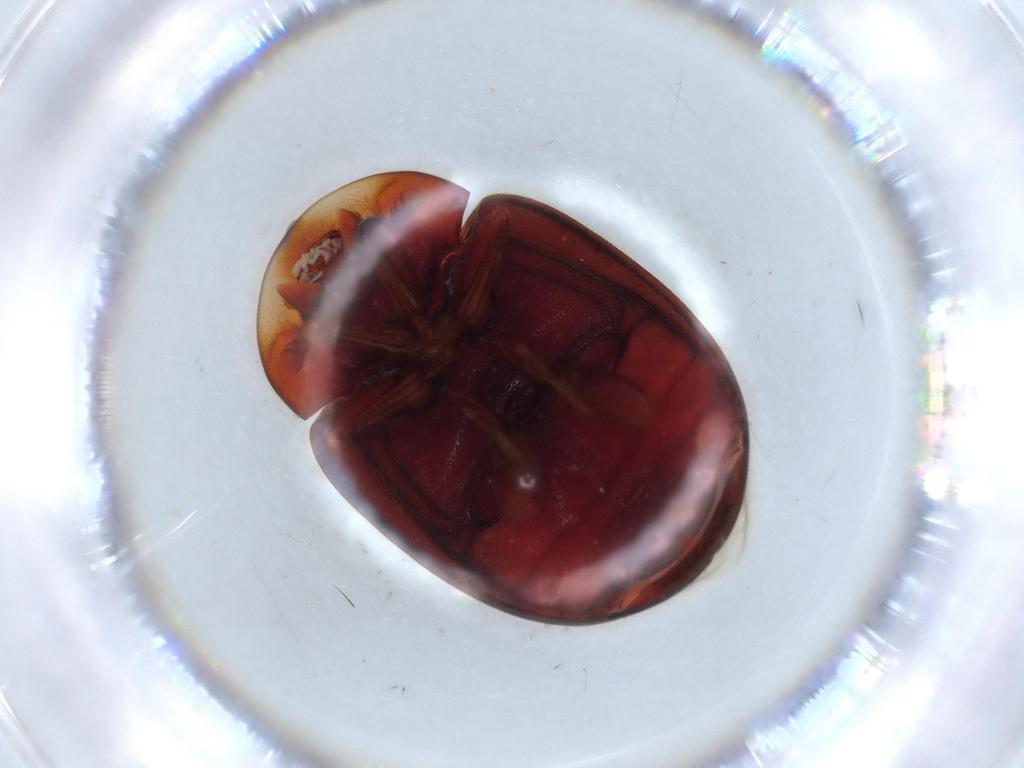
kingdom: Animalia
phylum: Arthropoda
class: Insecta
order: Coleoptera
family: Coccinellidae
